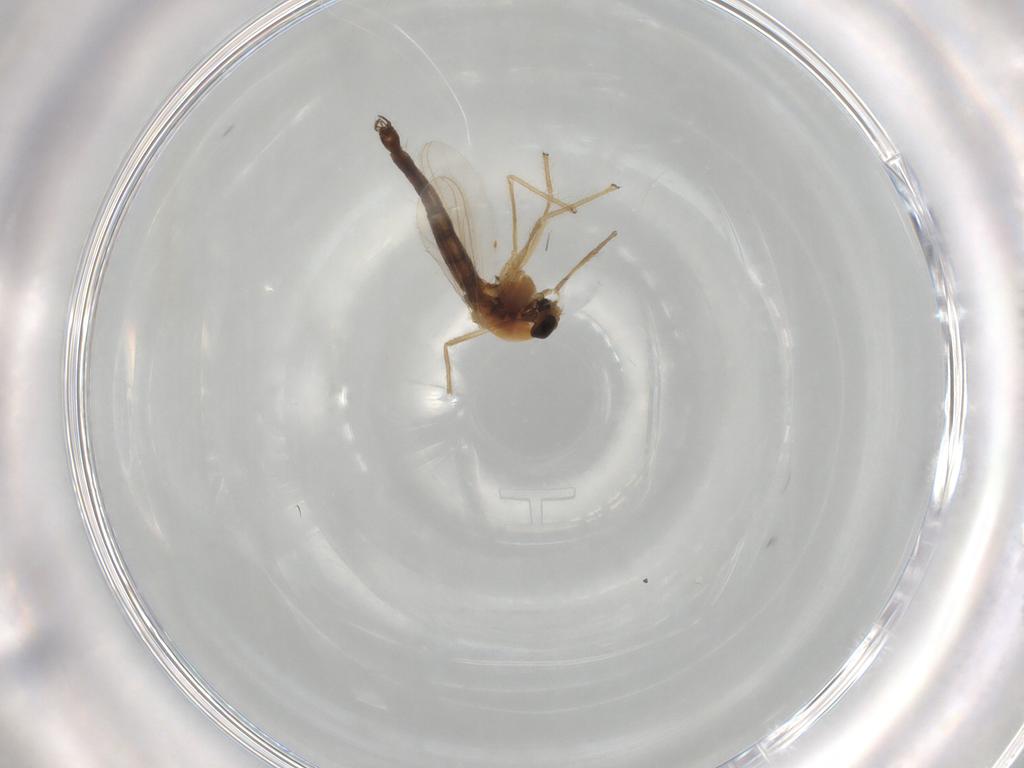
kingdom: Animalia
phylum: Arthropoda
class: Insecta
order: Diptera
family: Chironomidae
